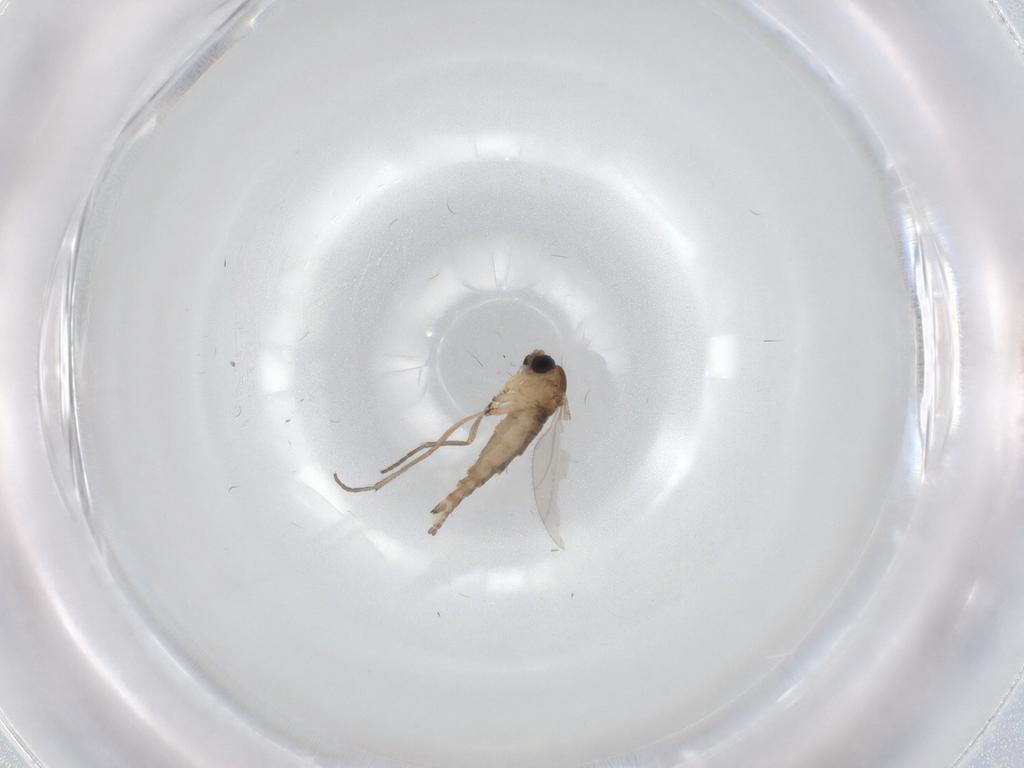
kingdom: Animalia
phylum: Arthropoda
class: Insecta
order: Diptera
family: Sciaridae
